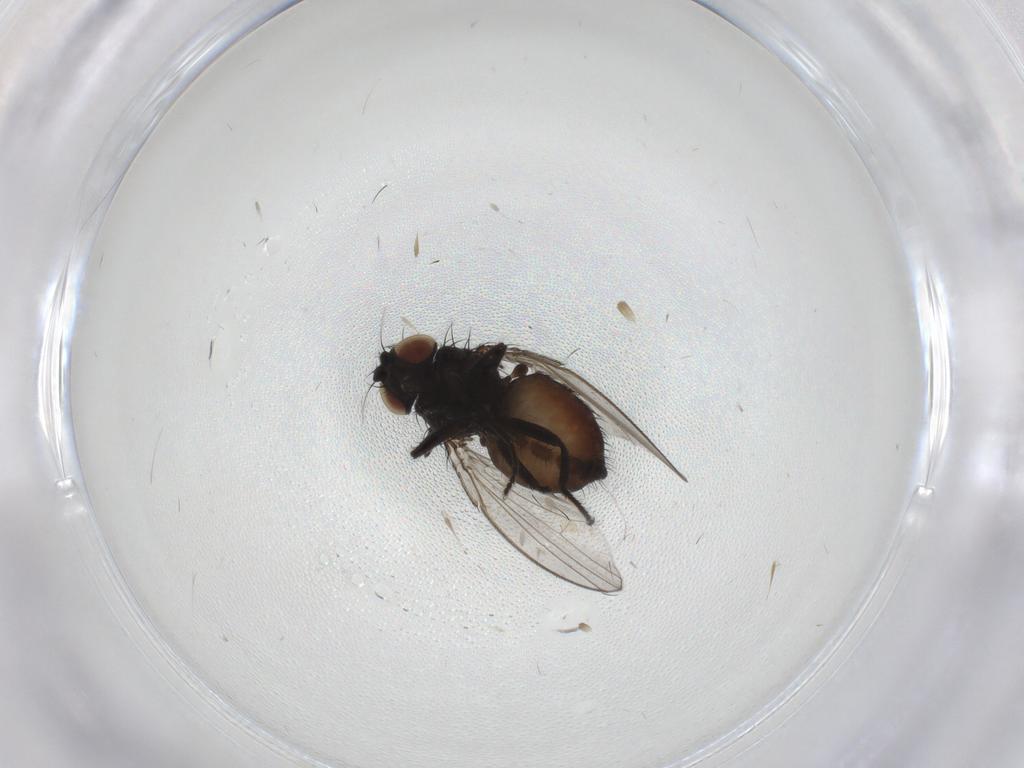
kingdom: Animalia
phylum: Arthropoda
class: Insecta
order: Diptera
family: Milichiidae
